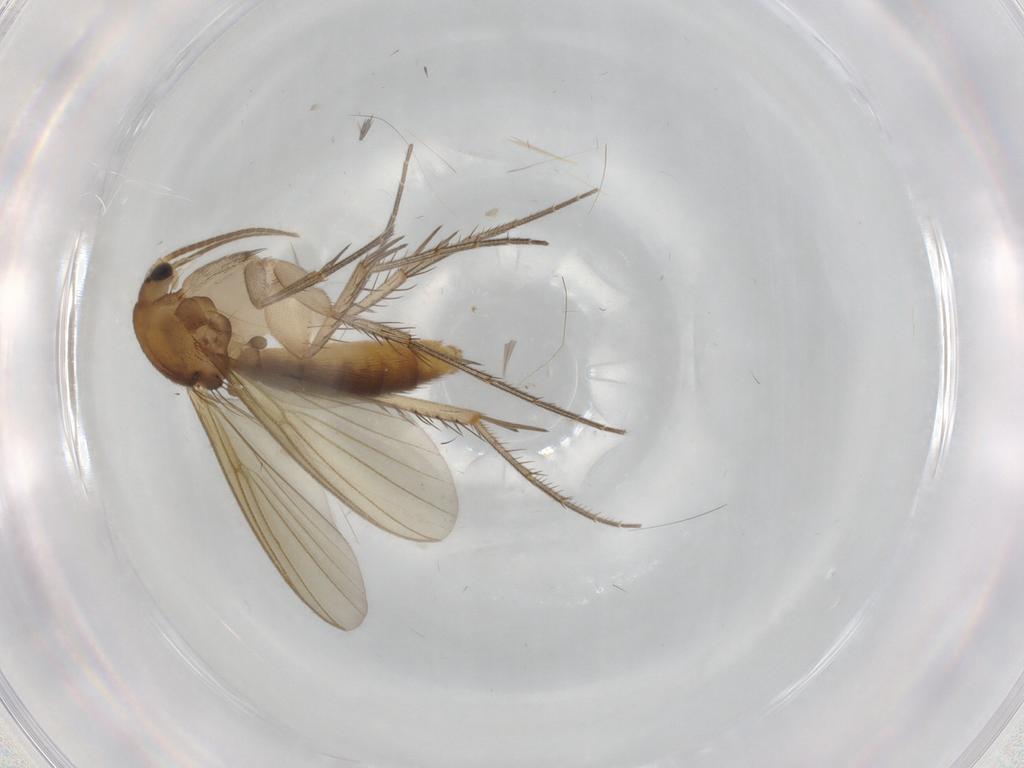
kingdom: Animalia
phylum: Arthropoda
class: Insecta
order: Diptera
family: Mycetophilidae
